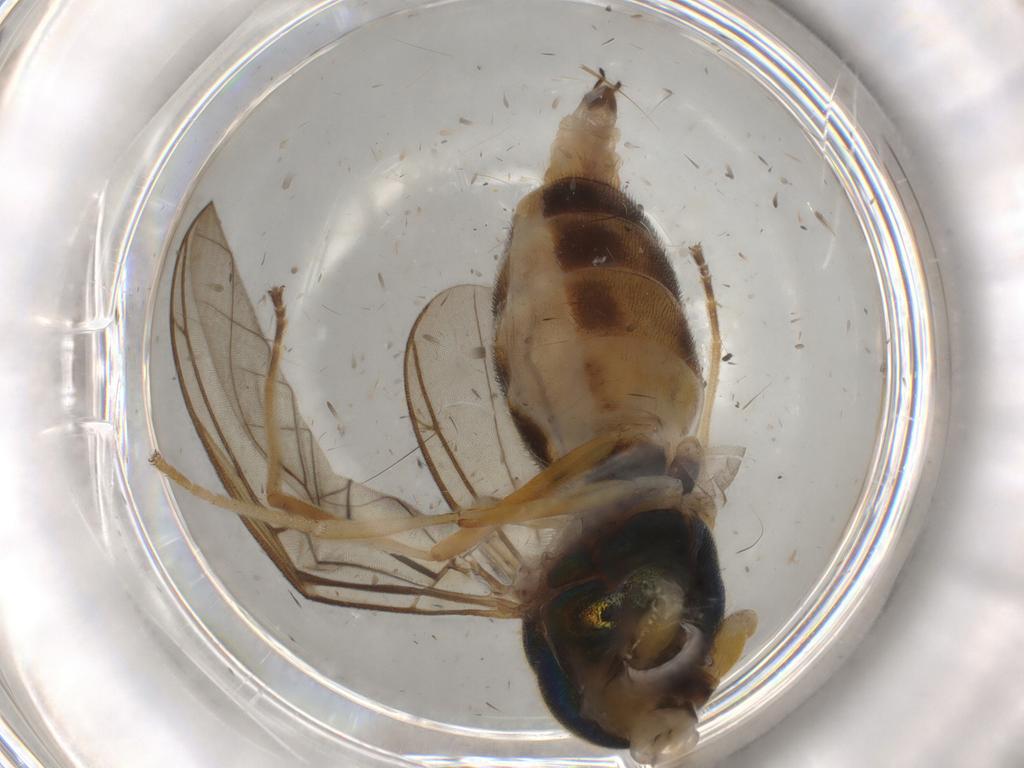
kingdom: Animalia
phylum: Arthropoda
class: Insecta
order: Diptera
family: Stratiomyidae
